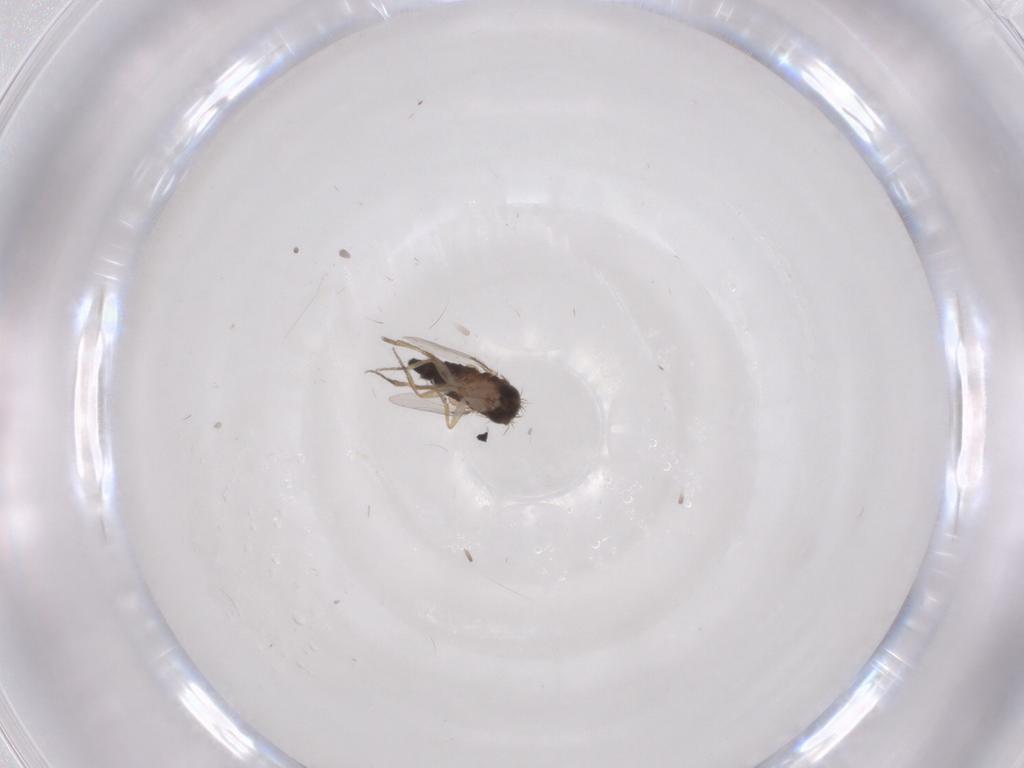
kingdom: Animalia
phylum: Arthropoda
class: Insecta
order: Diptera
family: Phoridae
